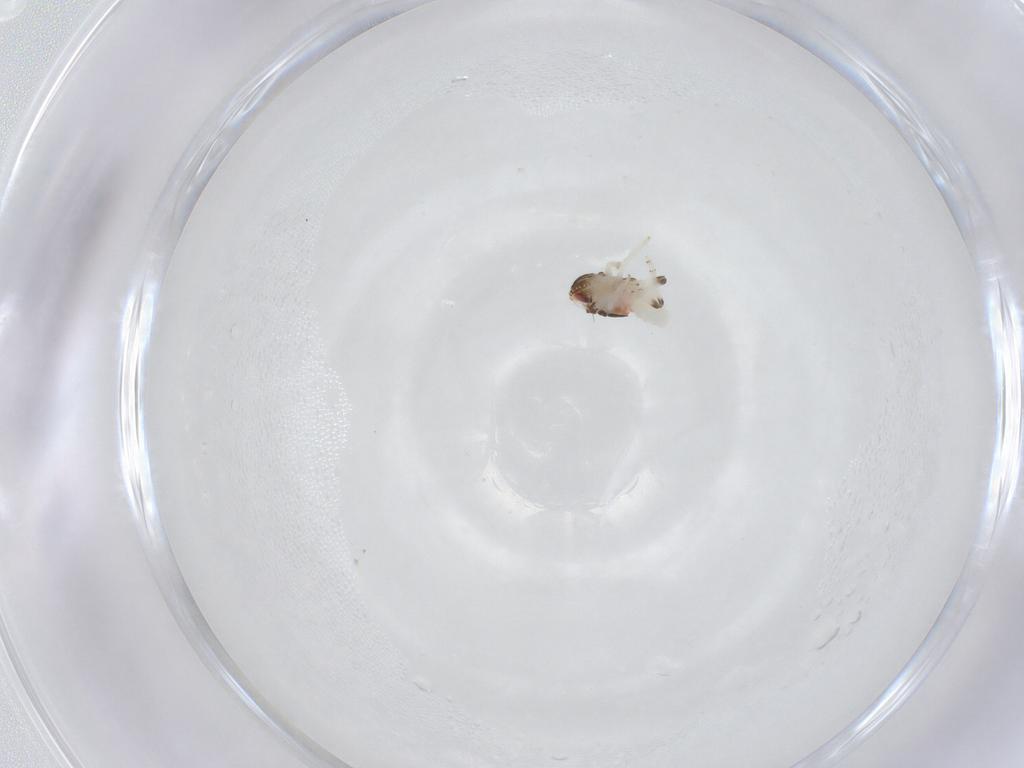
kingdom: Animalia
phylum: Arthropoda
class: Insecta
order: Hemiptera
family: Nogodinidae
